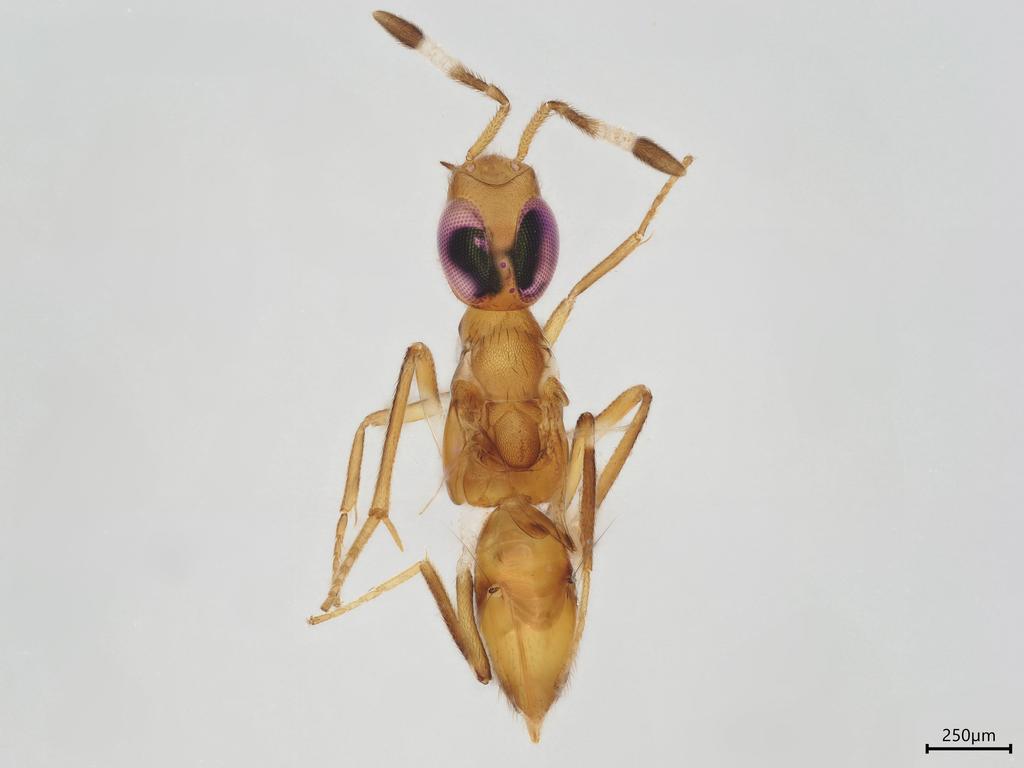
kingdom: Animalia
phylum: Arthropoda
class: Insecta
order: Hymenoptera
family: Encyrtidae
